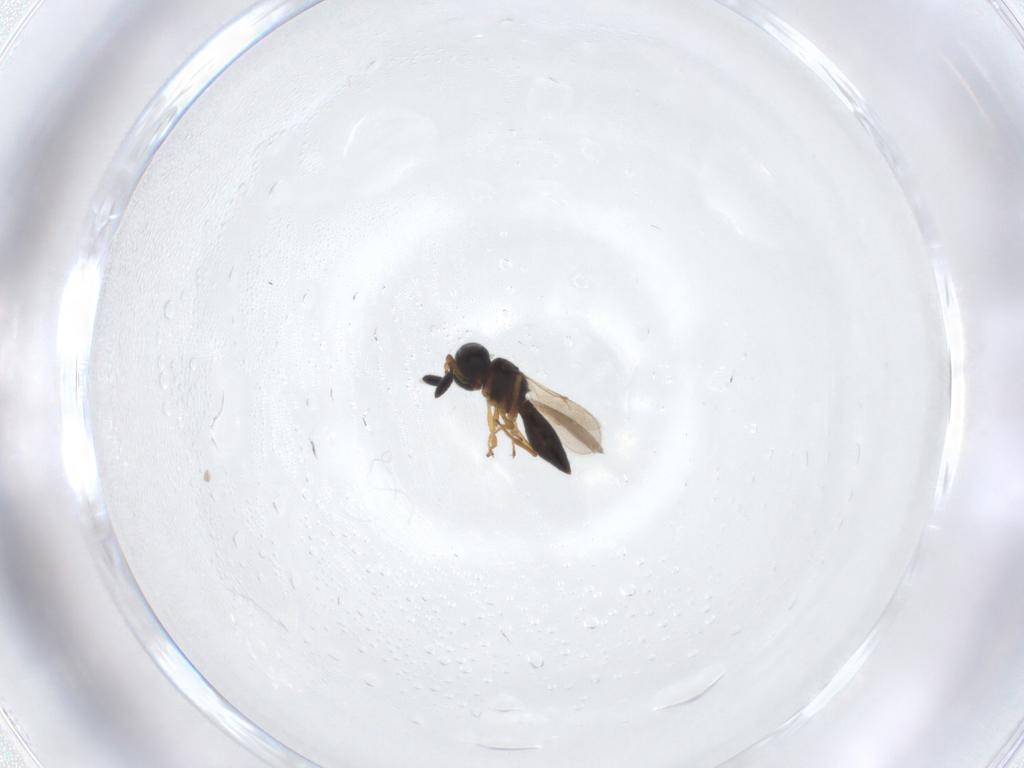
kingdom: Animalia
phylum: Arthropoda
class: Insecta
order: Hymenoptera
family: Scelionidae
